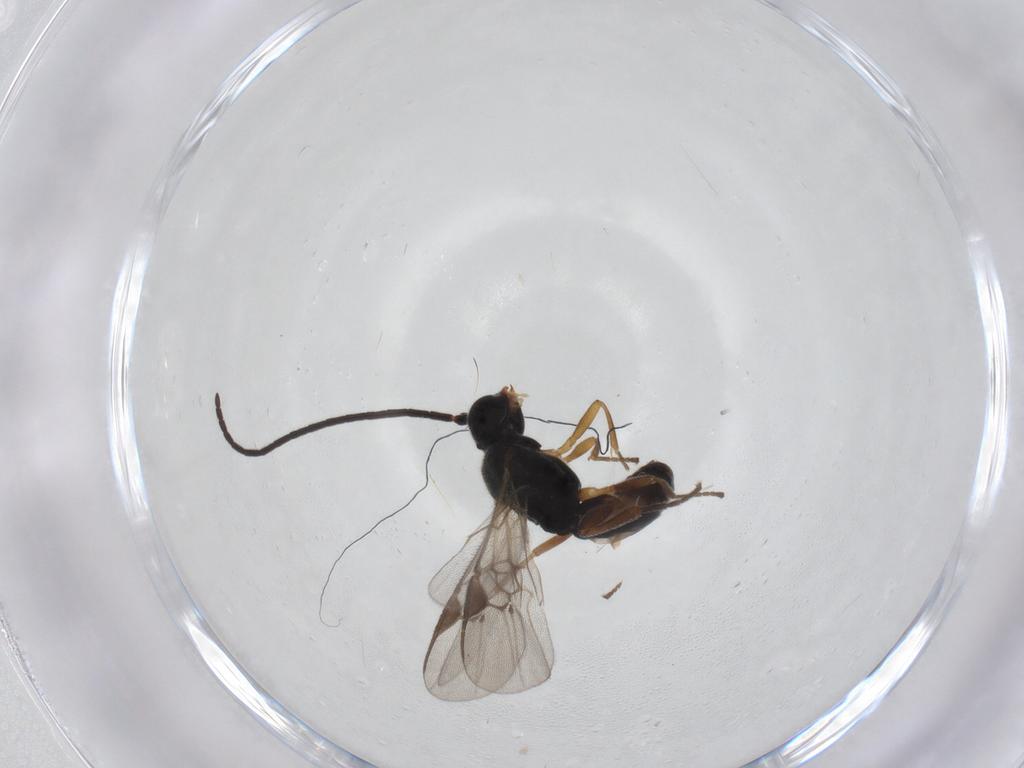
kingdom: Animalia
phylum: Arthropoda
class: Insecta
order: Hymenoptera
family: Braconidae
